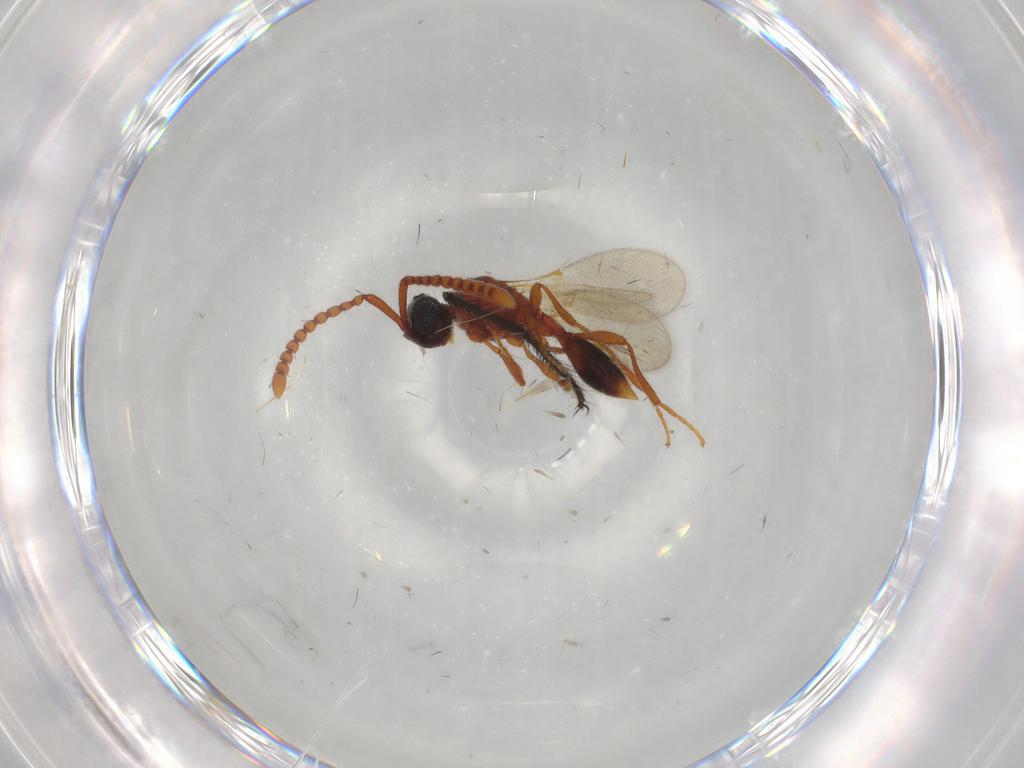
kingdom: Animalia
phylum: Arthropoda
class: Insecta
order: Hymenoptera
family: Diapriidae
